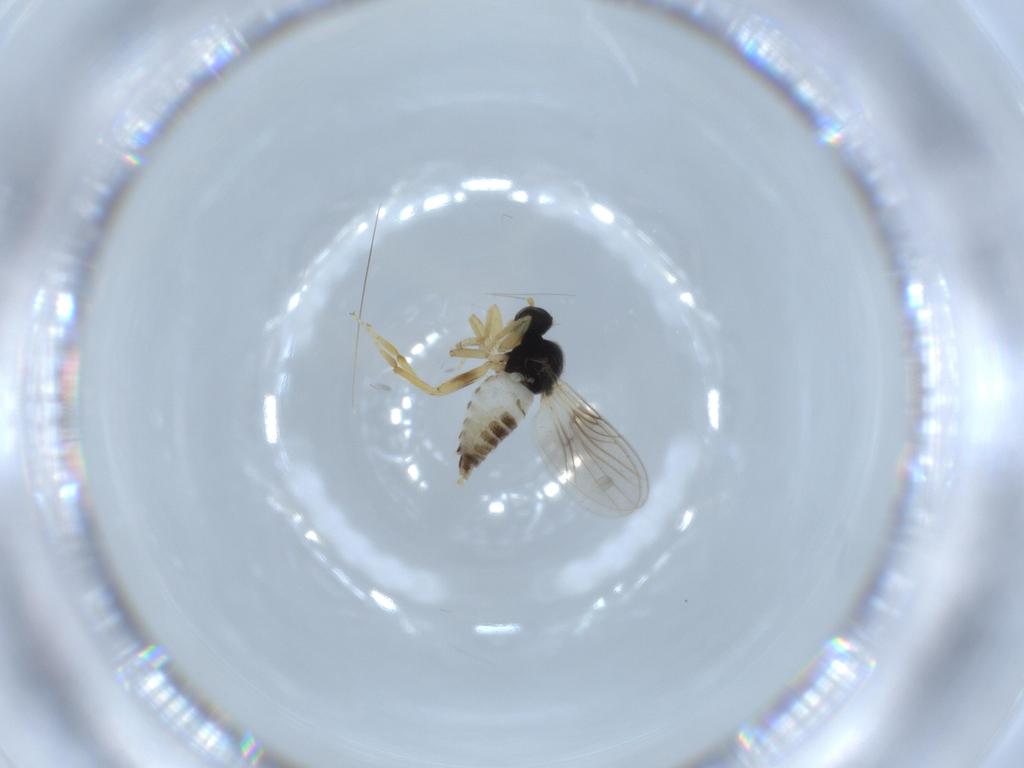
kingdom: Animalia
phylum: Arthropoda
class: Insecta
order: Diptera
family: Hybotidae
